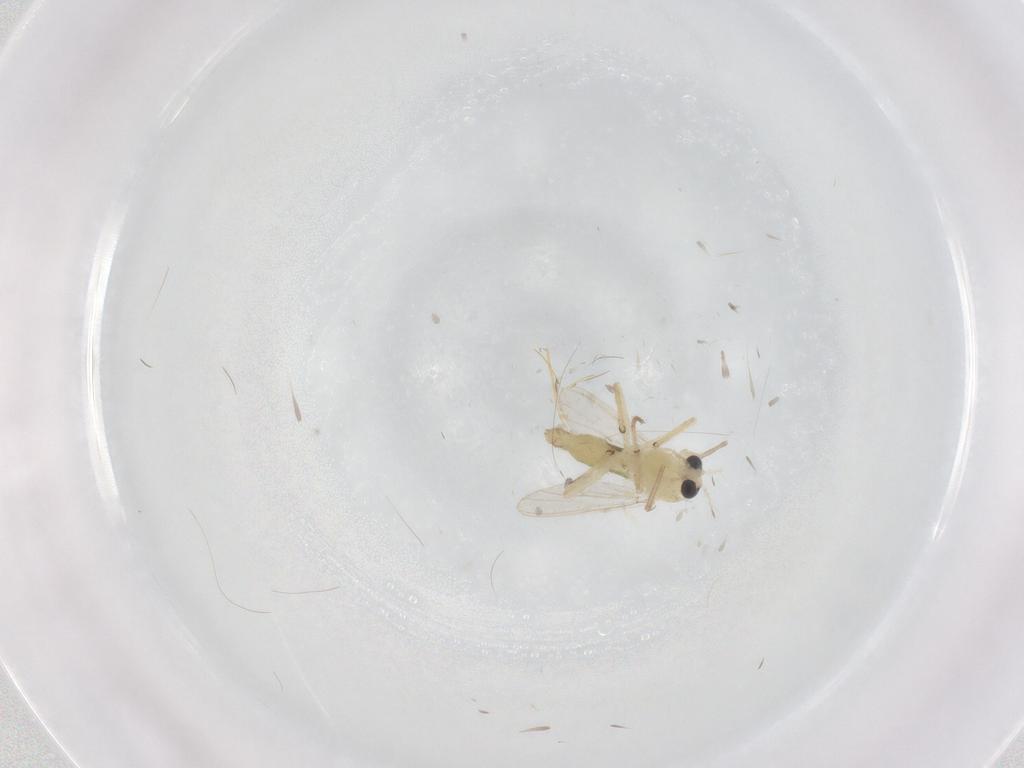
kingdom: Animalia
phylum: Arthropoda
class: Insecta
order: Diptera
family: Chironomidae
